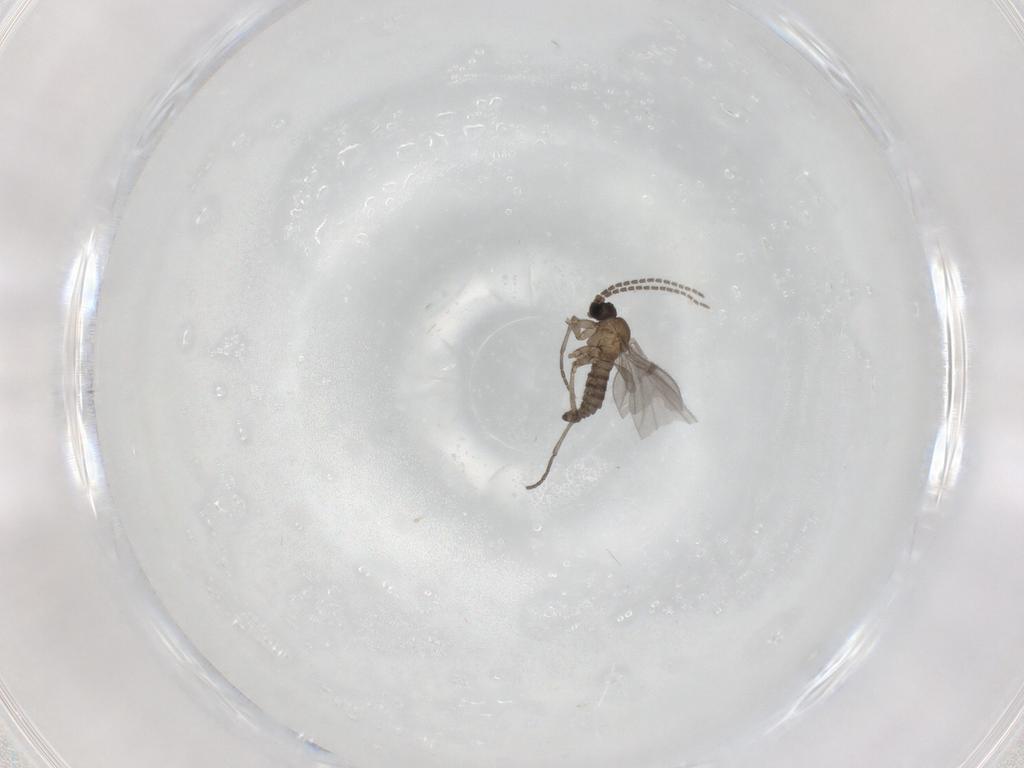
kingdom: Animalia
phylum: Arthropoda
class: Insecta
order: Diptera
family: Sciaridae
